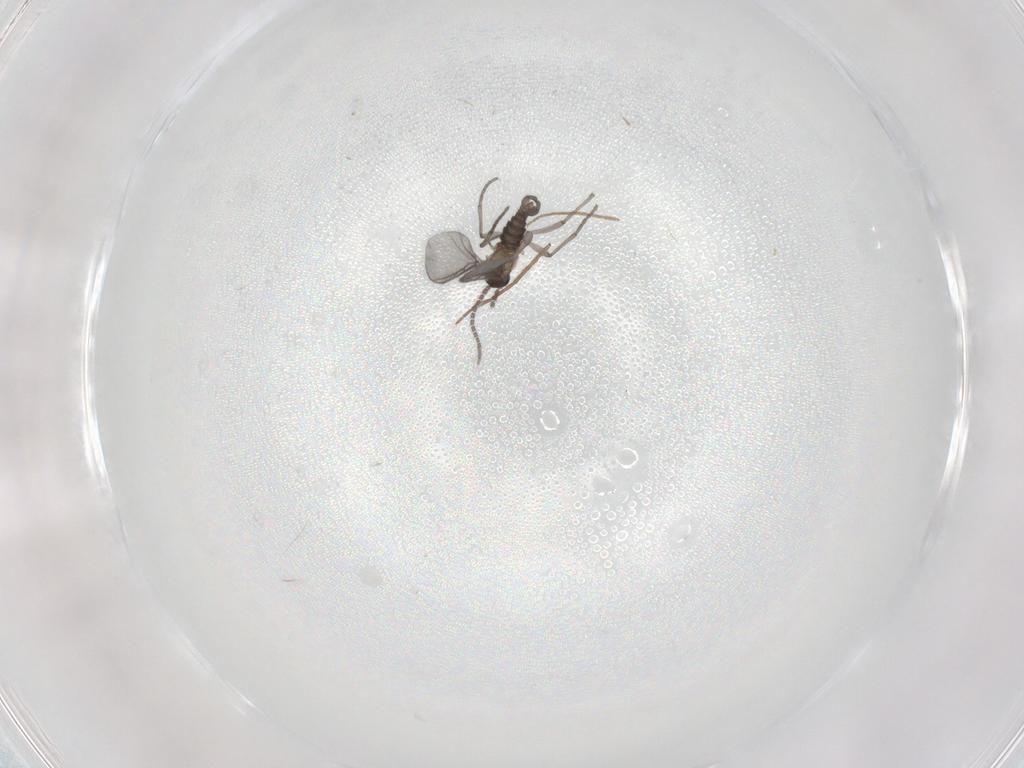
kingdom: Animalia
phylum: Arthropoda
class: Insecta
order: Diptera
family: Sciaridae
